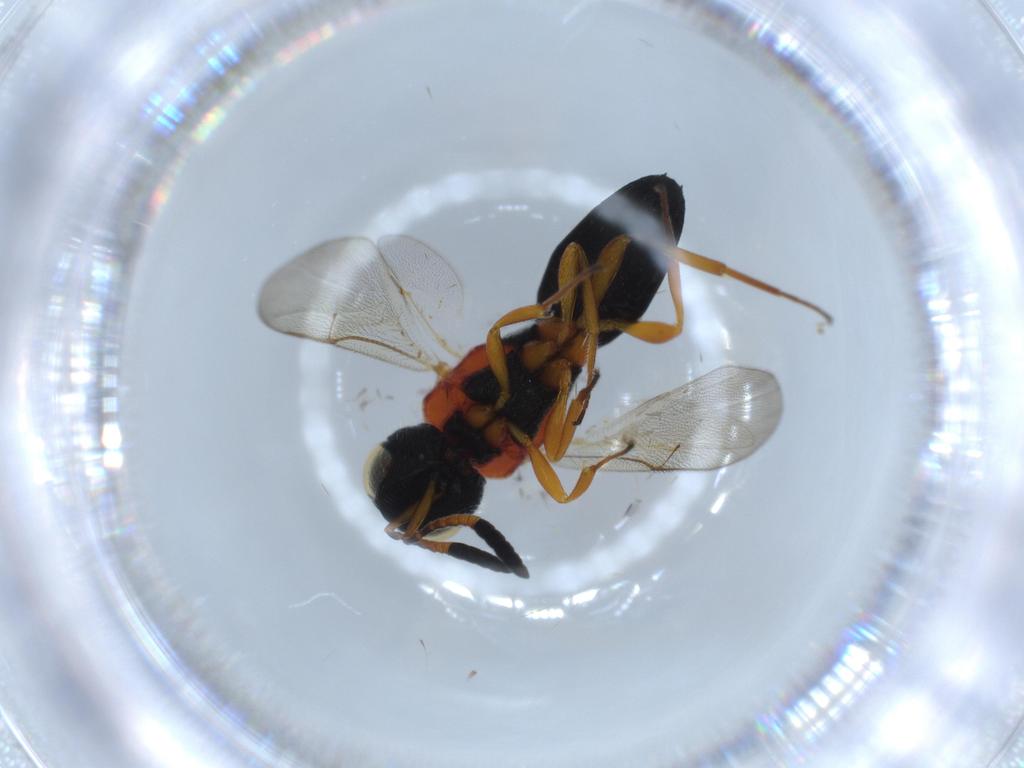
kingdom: Animalia
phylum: Arthropoda
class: Insecta
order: Hymenoptera
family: Scelionidae
